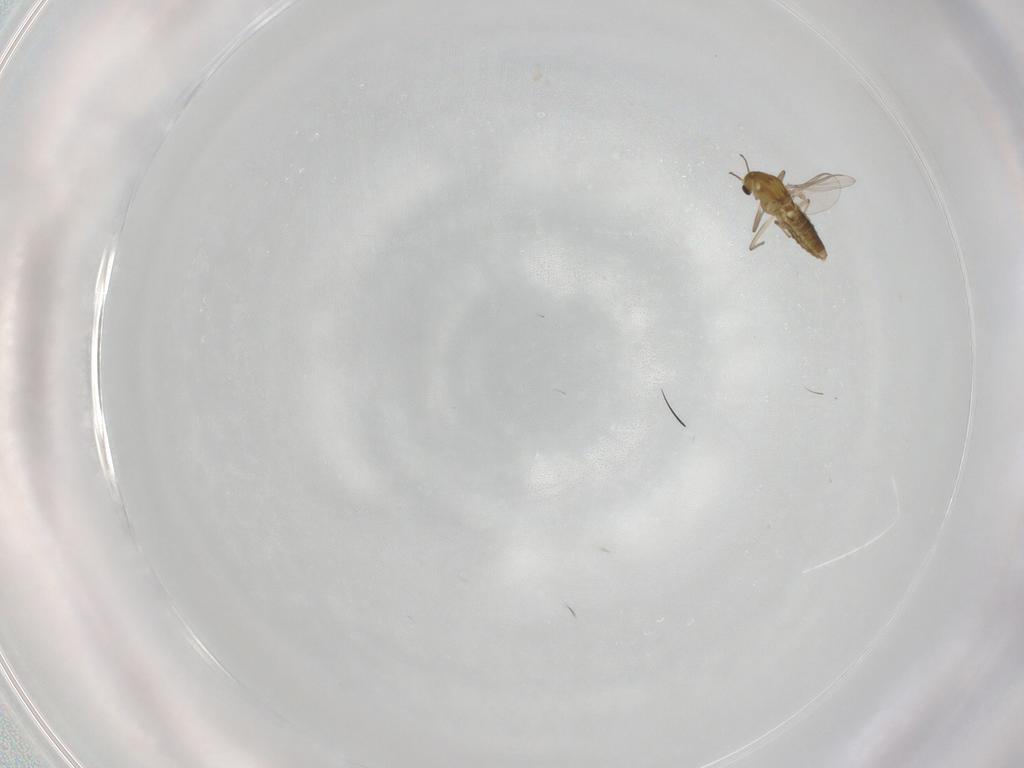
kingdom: Animalia
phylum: Arthropoda
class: Insecta
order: Diptera
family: Chironomidae
